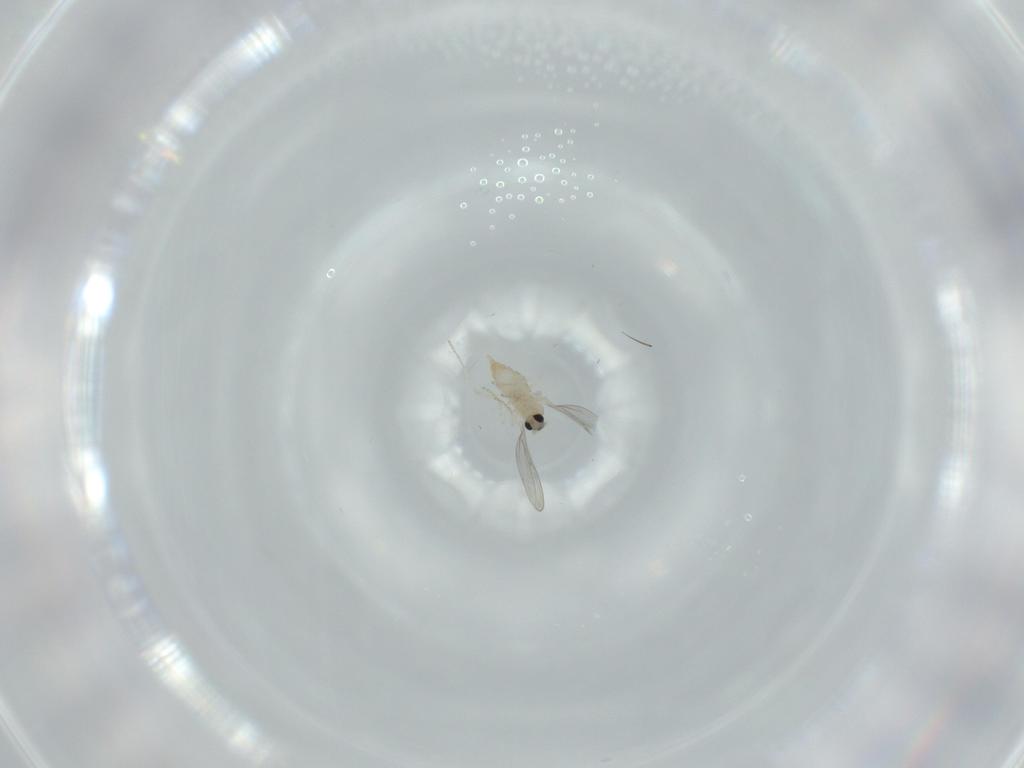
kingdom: Animalia
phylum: Arthropoda
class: Insecta
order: Diptera
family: Cecidomyiidae
